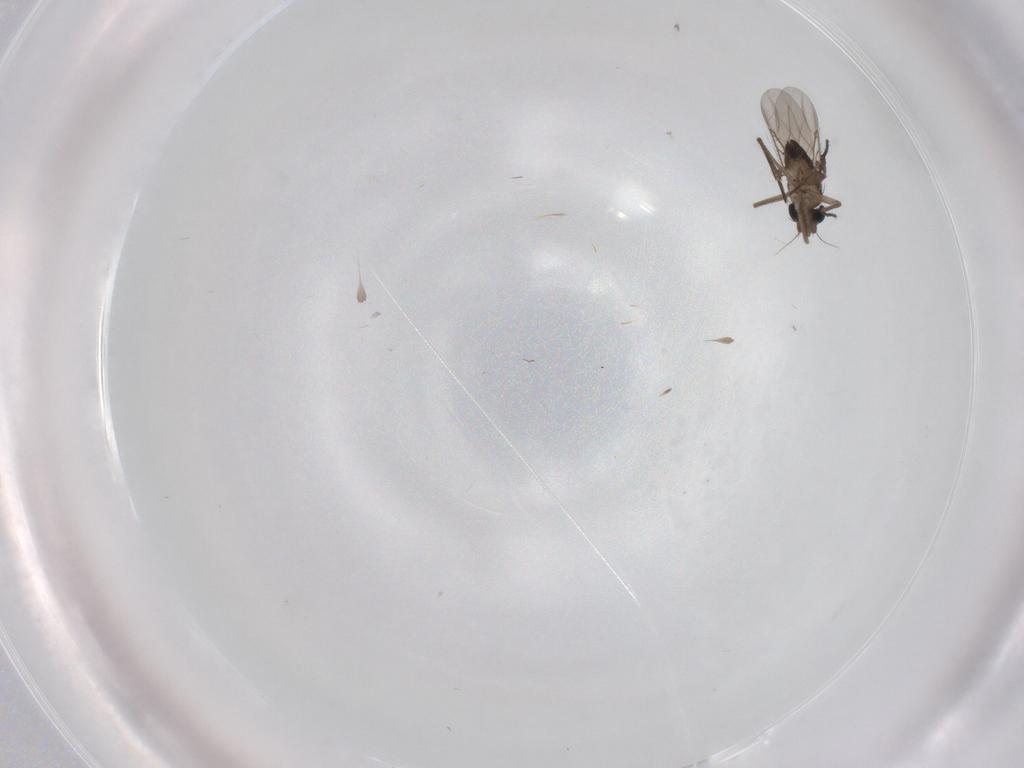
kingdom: Animalia
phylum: Arthropoda
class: Insecta
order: Diptera
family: Phoridae
